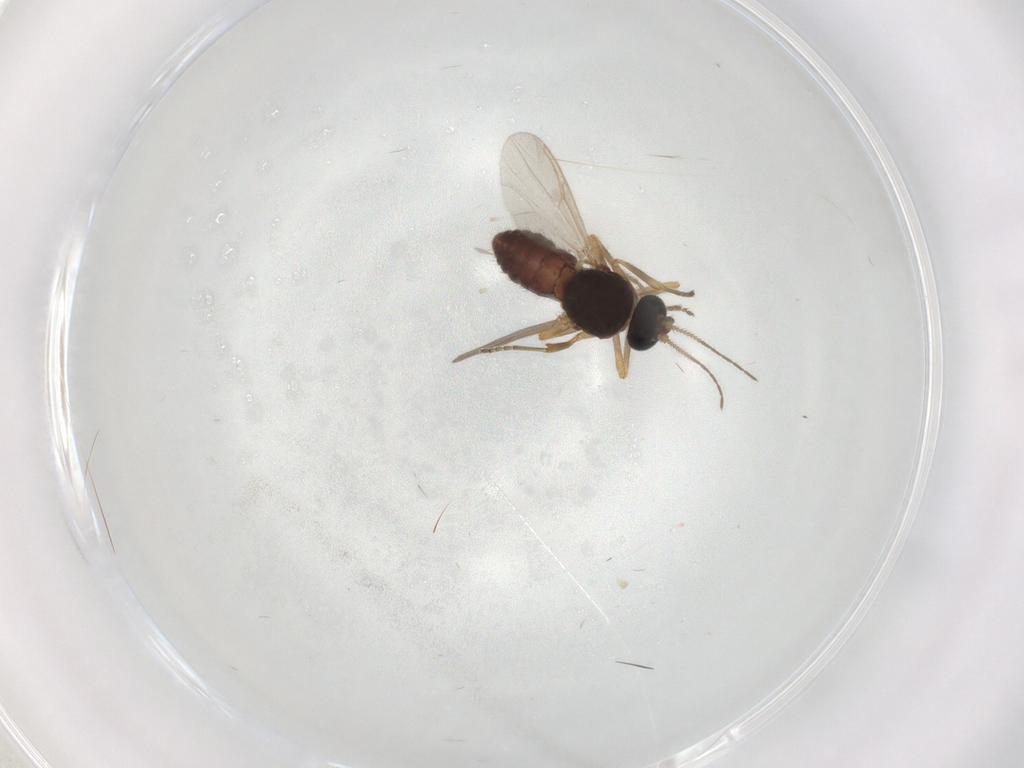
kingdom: Animalia
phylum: Arthropoda
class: Insecta
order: Diptera
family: Ceratopogonidae
